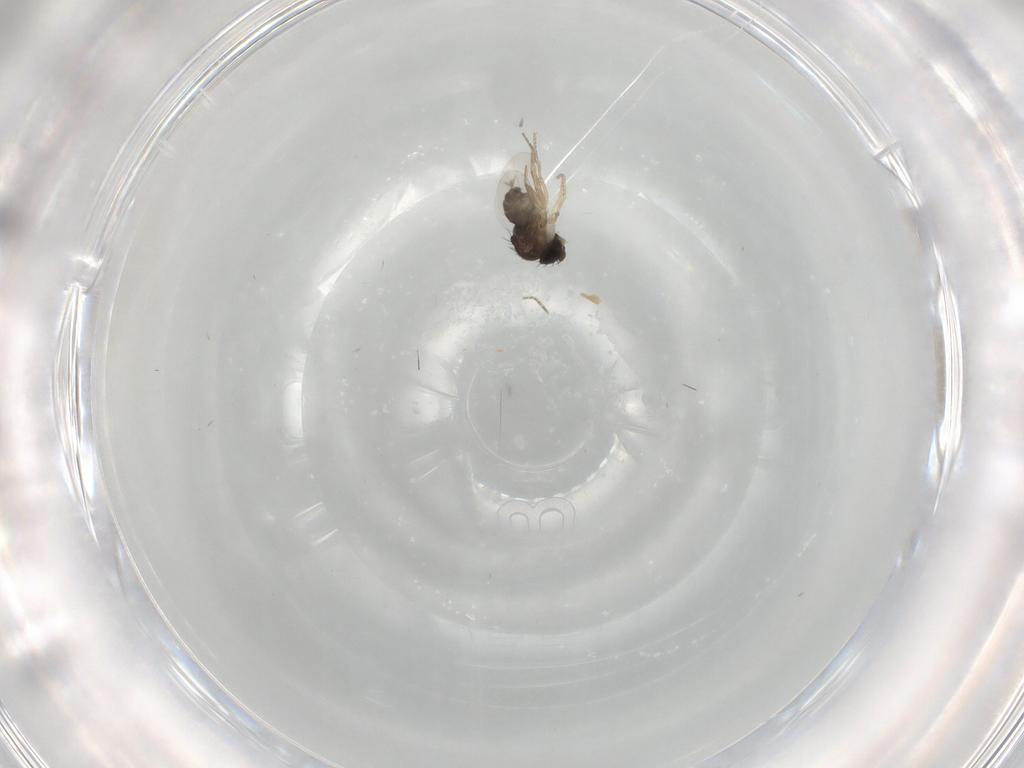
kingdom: Animalia
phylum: Arthropoda
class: Insecta
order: Diptera
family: Phoridae
